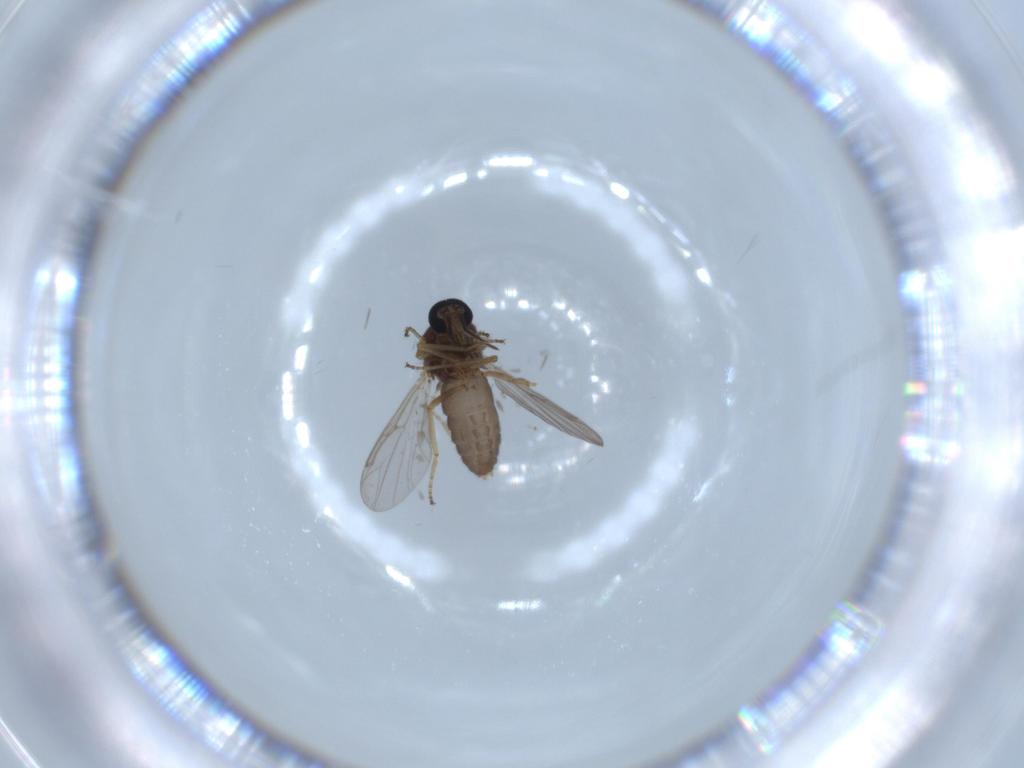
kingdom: Animalia
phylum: Arthropoda
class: Insecta
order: Diptera
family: Ceratopogonidae
